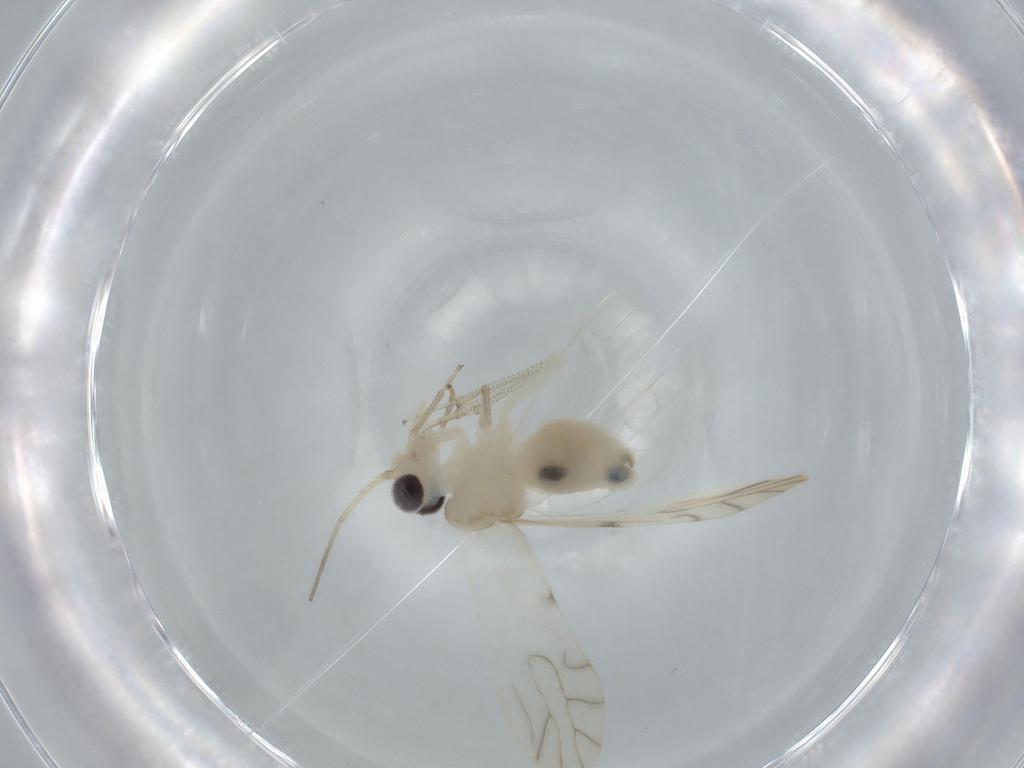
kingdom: Animalia
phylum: Arthropoda
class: Insecta
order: Psocodea
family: Caeciliusidae
